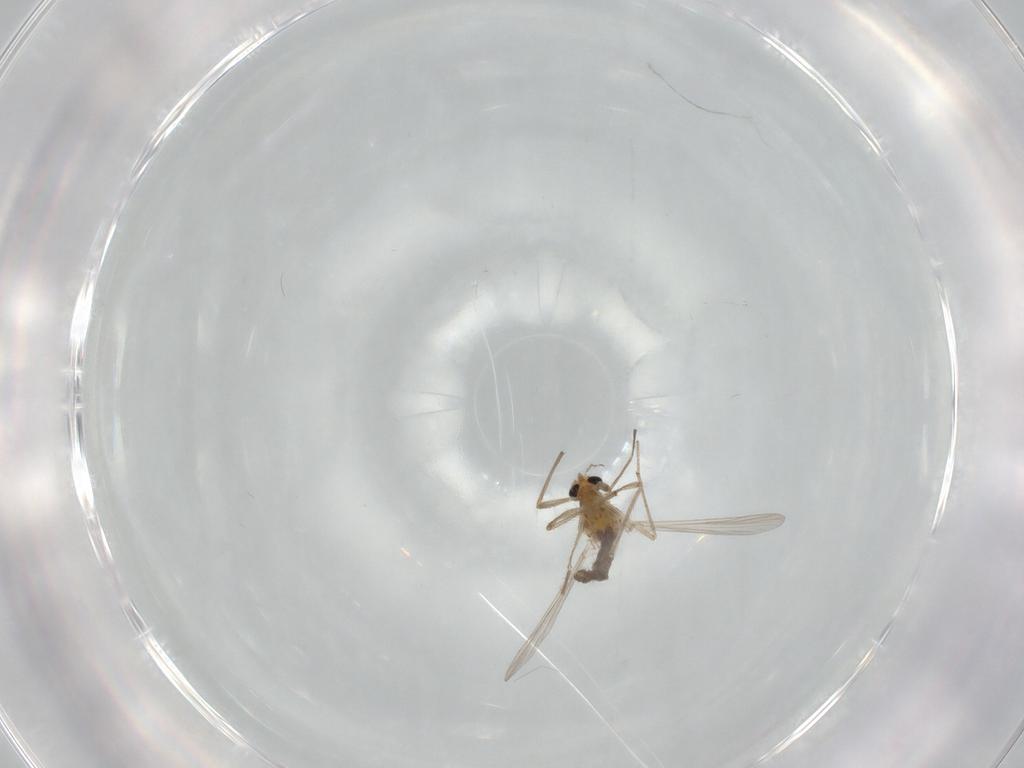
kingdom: Animalia
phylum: Arthropoda
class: Insecta
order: Diptera
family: Chironomidae
